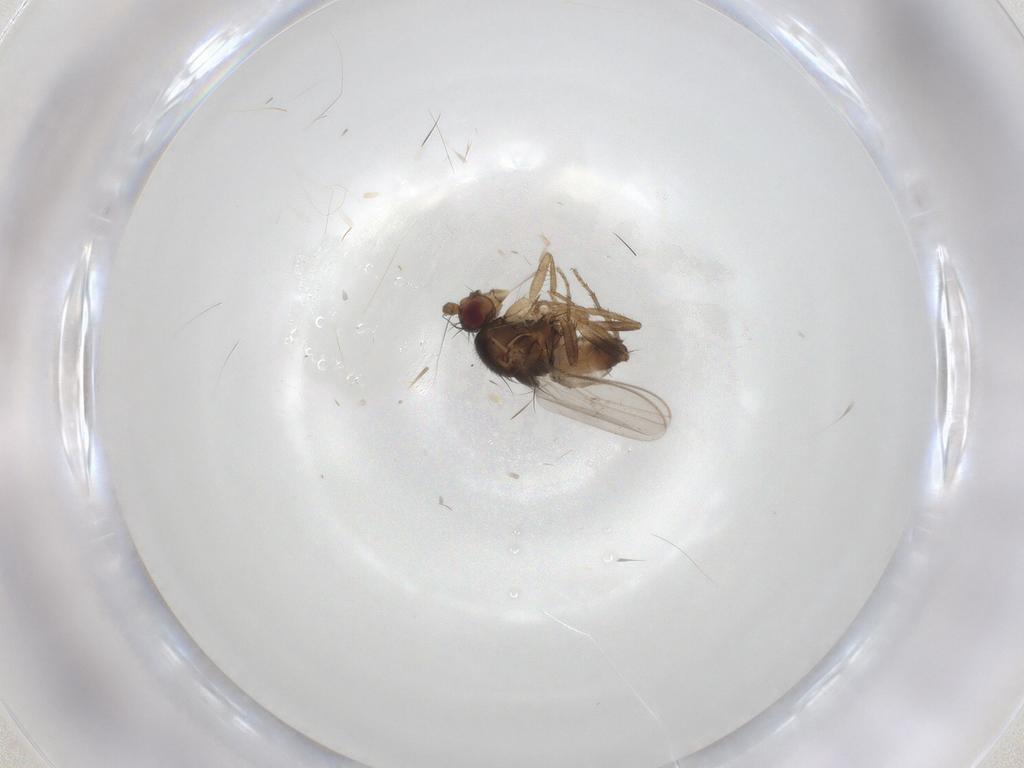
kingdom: Animalia
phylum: Arthropoda
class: Insecta
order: Diptera
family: Sphaeroceridae
